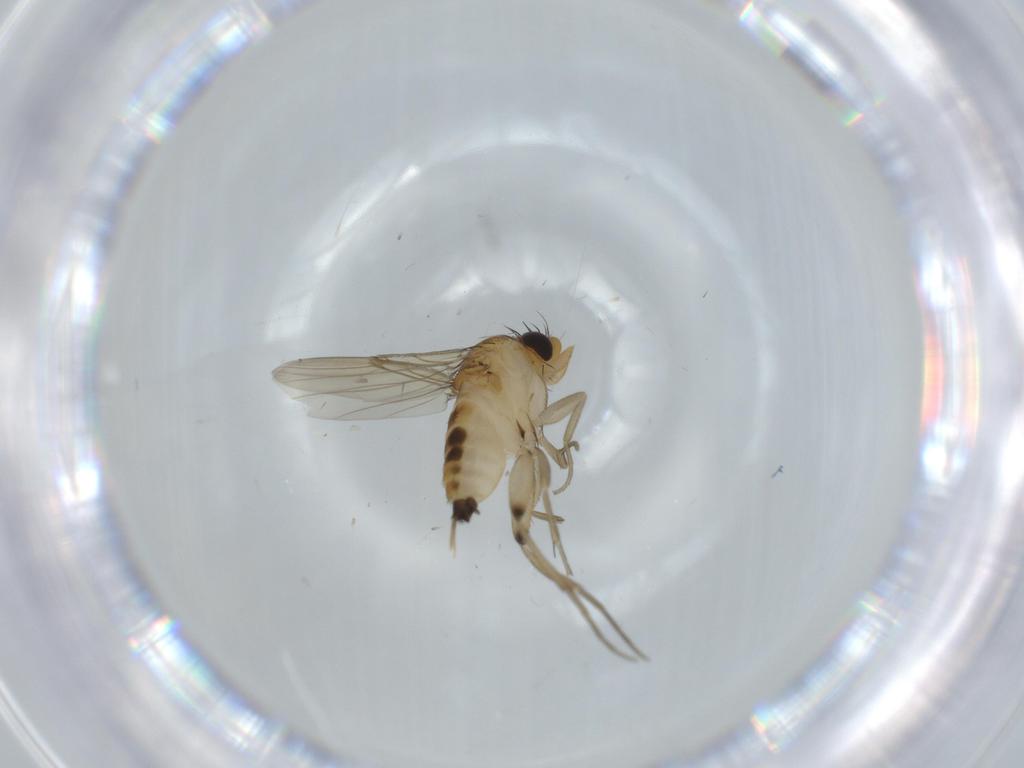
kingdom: Animalia
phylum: Arthropoda
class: Insecta
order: Diptera
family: Phoridae
